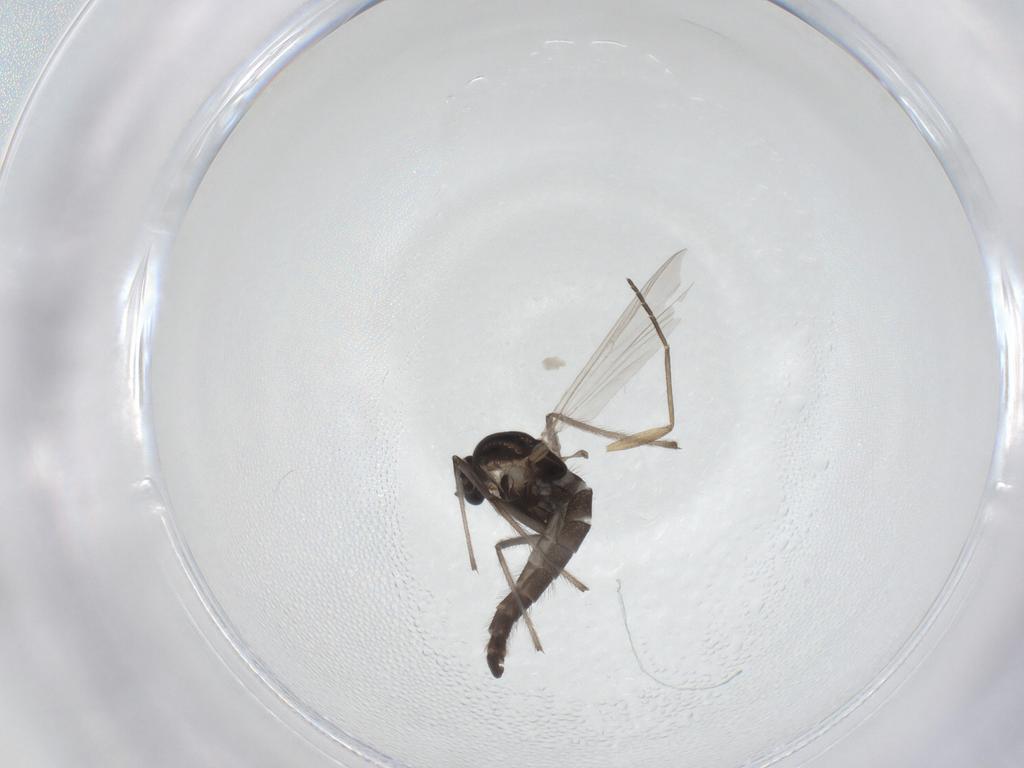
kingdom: Animalia
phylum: Arthropoda
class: Insecta
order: Diptera
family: Chironomidae
